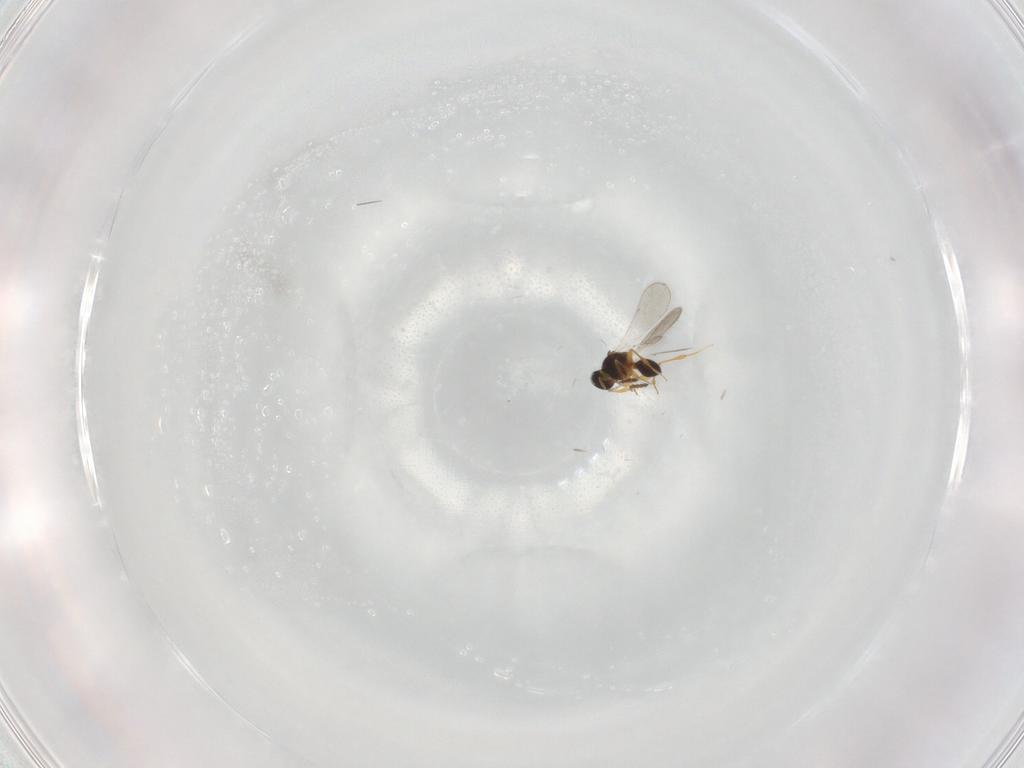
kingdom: Animalia
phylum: Arthropoda
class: Insecta
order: Hymenoptera
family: Platygastridae
